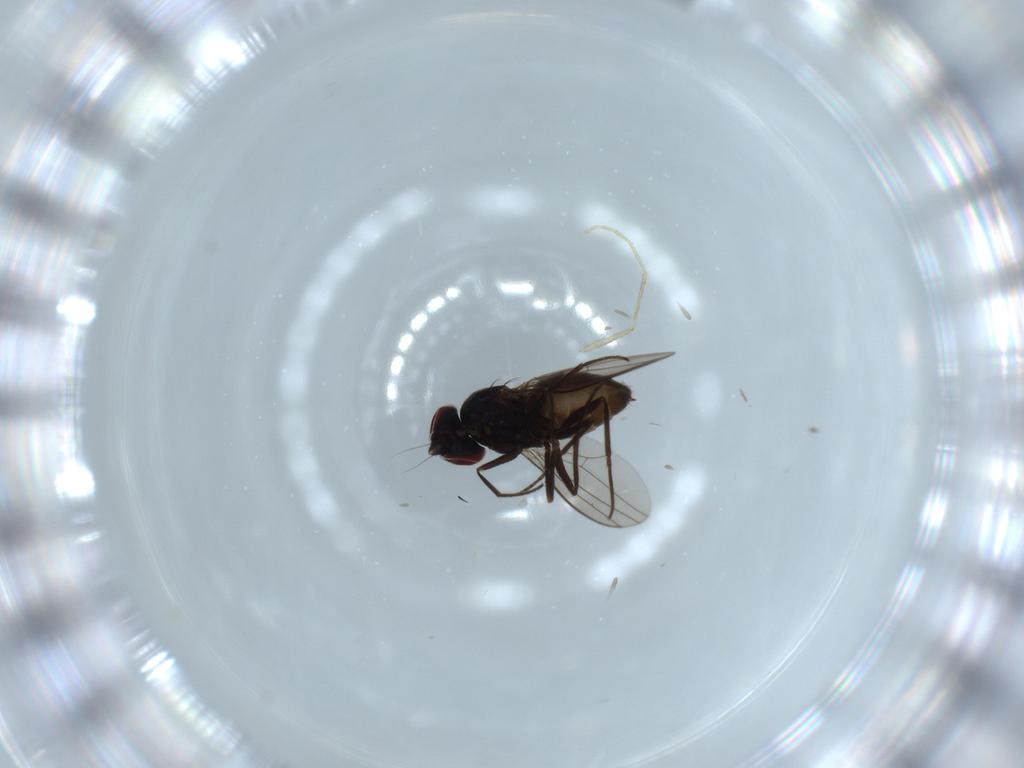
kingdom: Animalia
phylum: Arthropoda
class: Insecta
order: Diptera
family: Dolichopodidae
